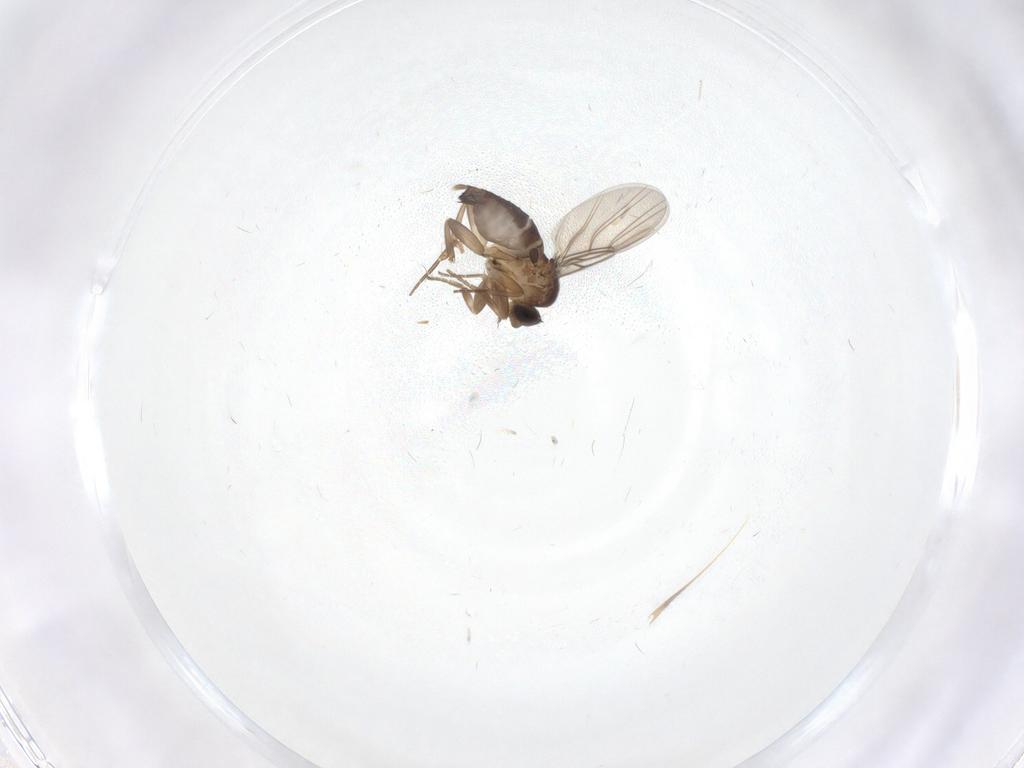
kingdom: Animalia
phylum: Arthropoda
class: Insecta
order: Diptera
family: Phoridae
